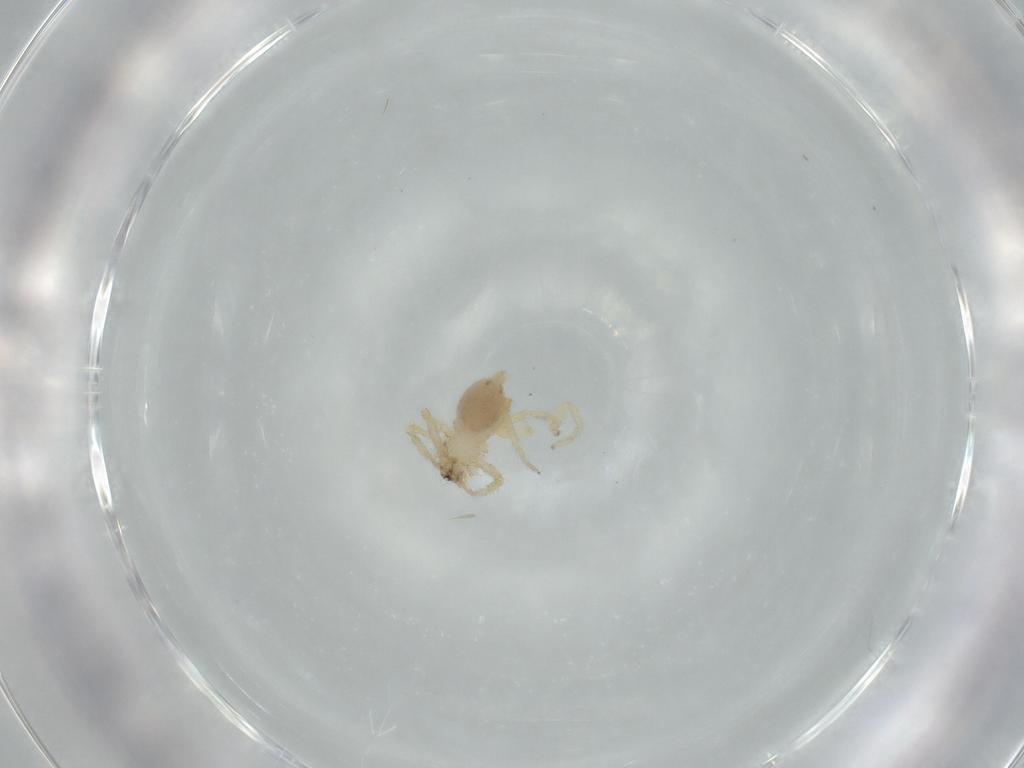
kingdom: Animalia
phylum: Arthropoda
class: Arachnida
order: Araneae
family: Oonopidae
